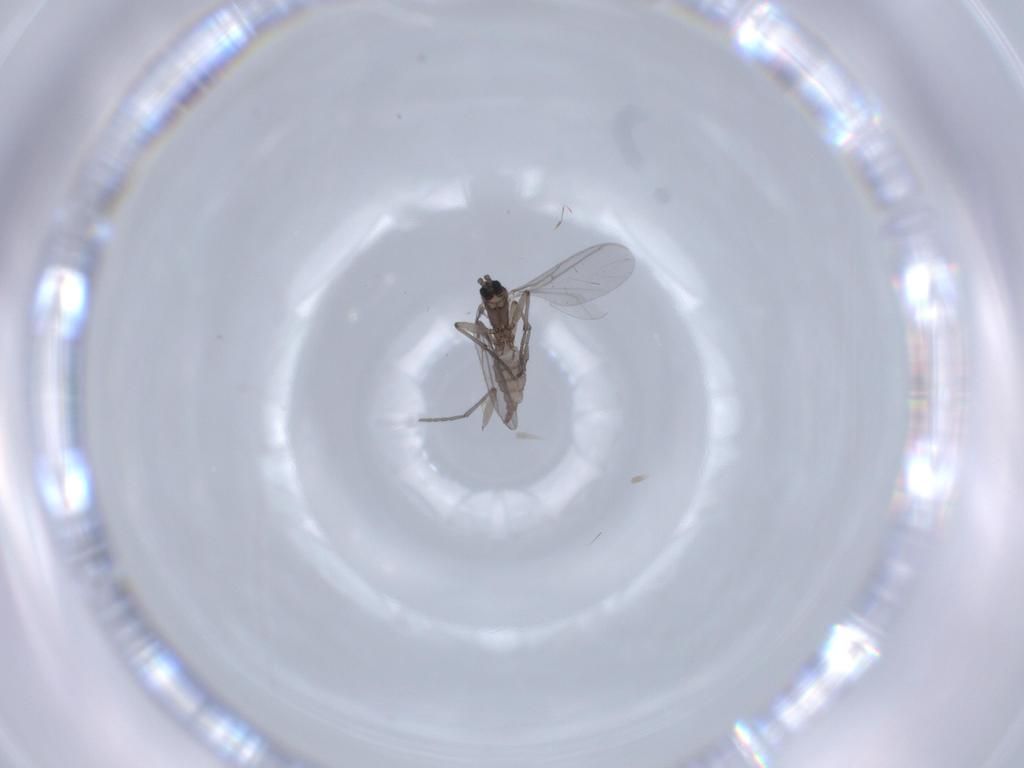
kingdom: Animalia
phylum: Arthropoda
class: Insecta
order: Diptera
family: Sciaridae
